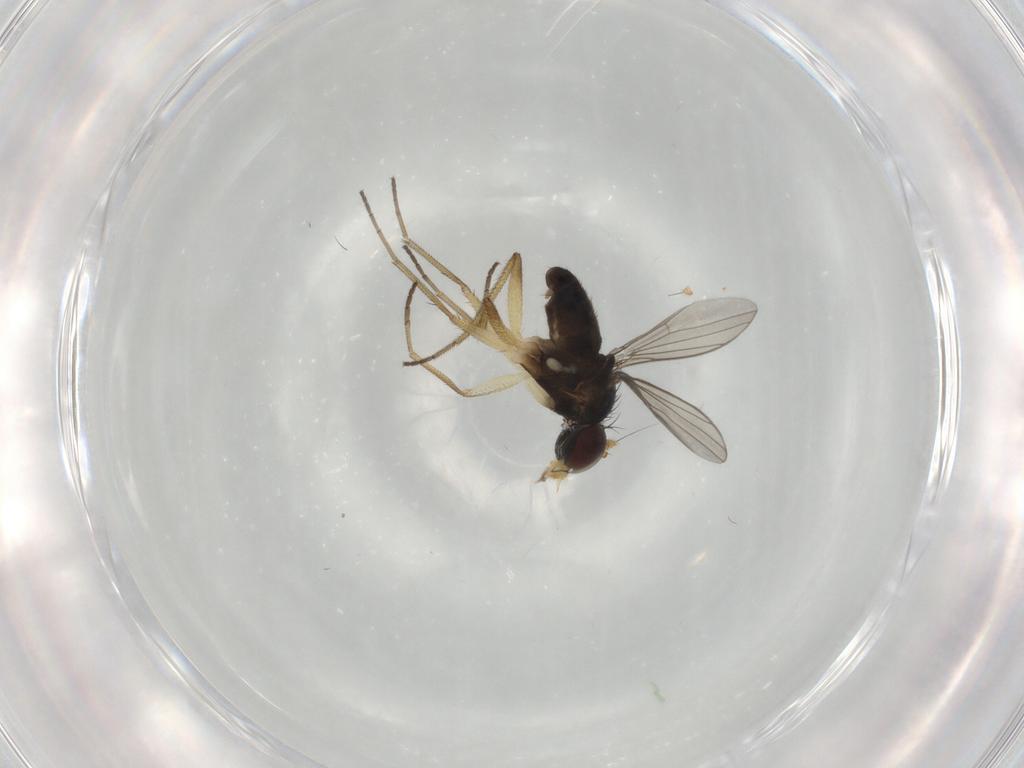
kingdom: Animalia
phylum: Arthropoda
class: Insecta
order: Diptera
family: Dolichopodidae
